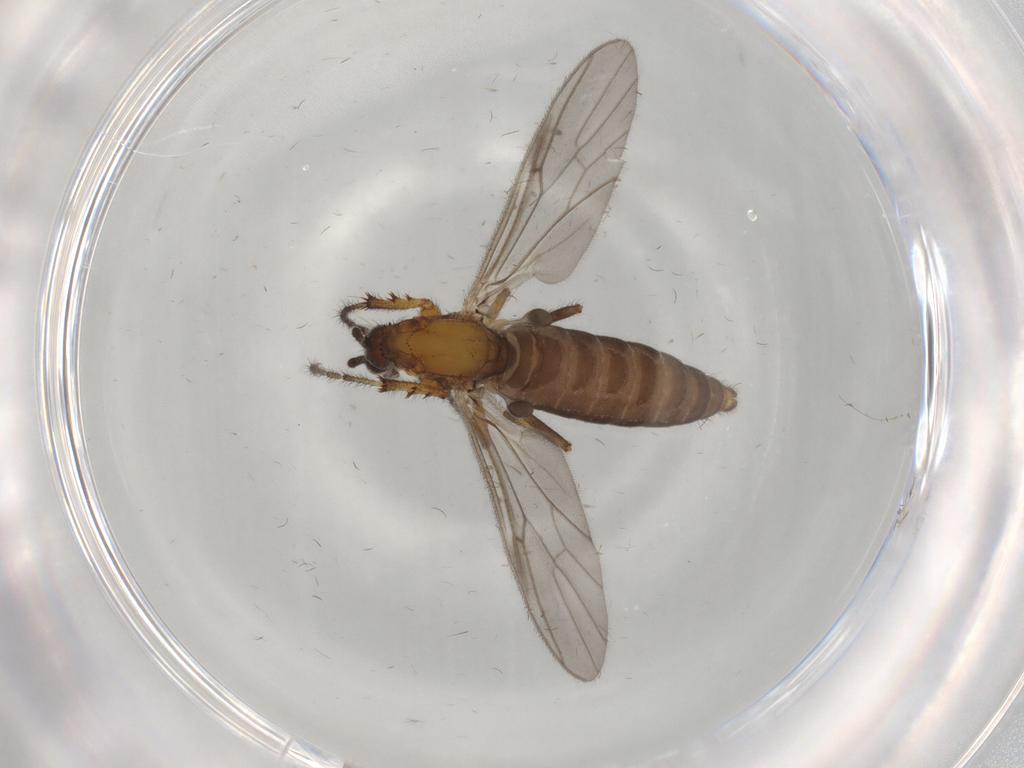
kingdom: Animalia
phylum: Arthropoda
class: Insecta
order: Diptera
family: Bibionidae
